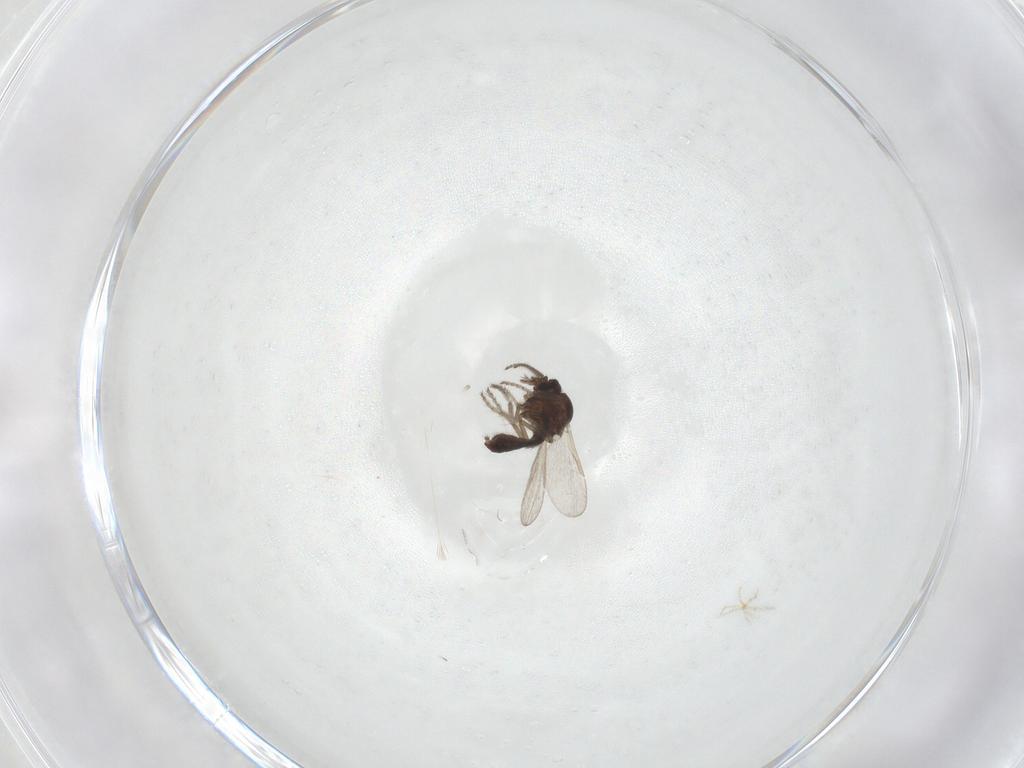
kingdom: Animalia
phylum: Arthropoda
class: Insecta
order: Diptera
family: Ceratopogonidae
